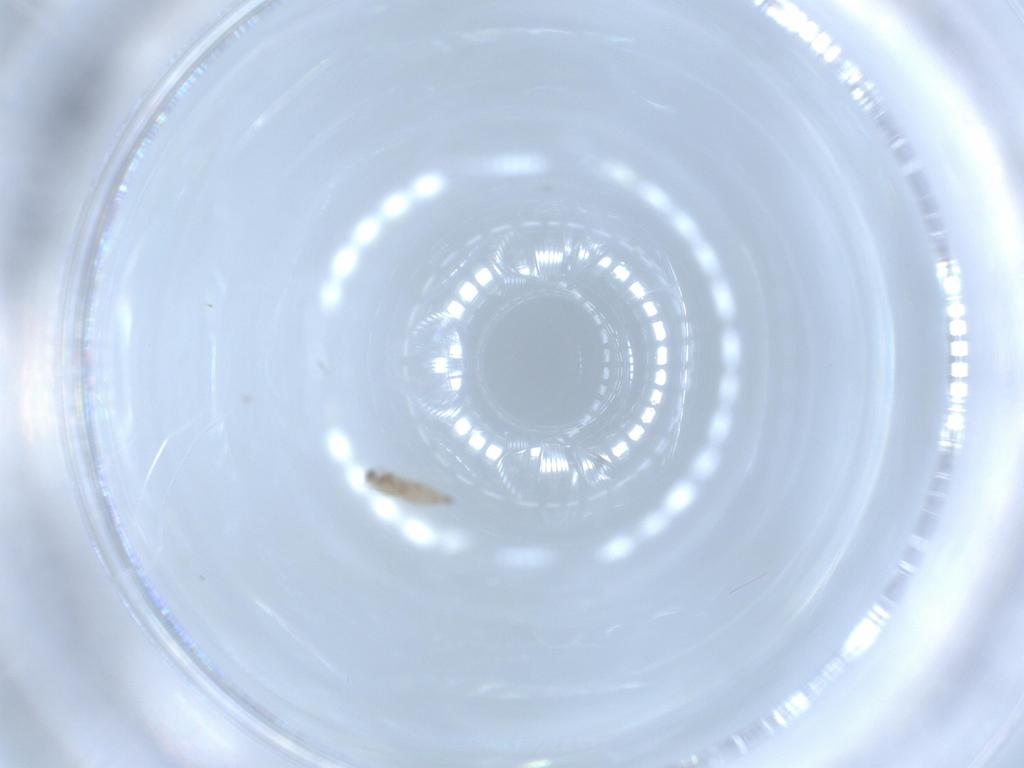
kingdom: Animalia
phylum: Arthropoda
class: Insecta
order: Diptera
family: Cecidomyiidae
